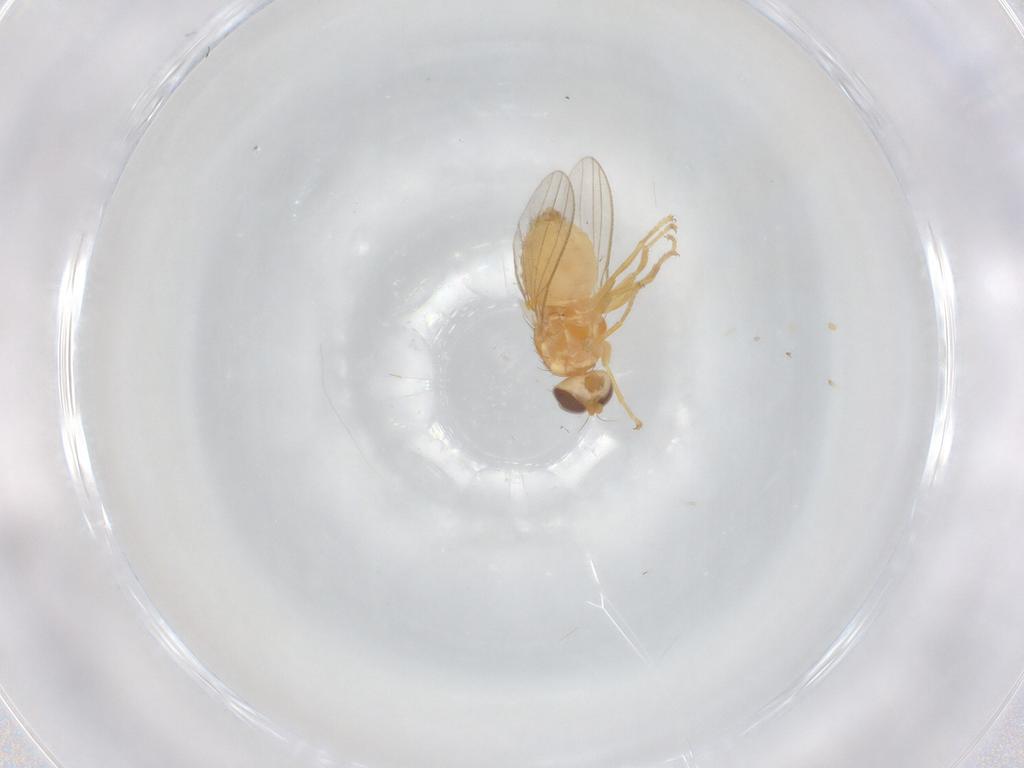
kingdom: Animalia
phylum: Arthropoda
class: Insecta
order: Diptera
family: Chyromyidae
